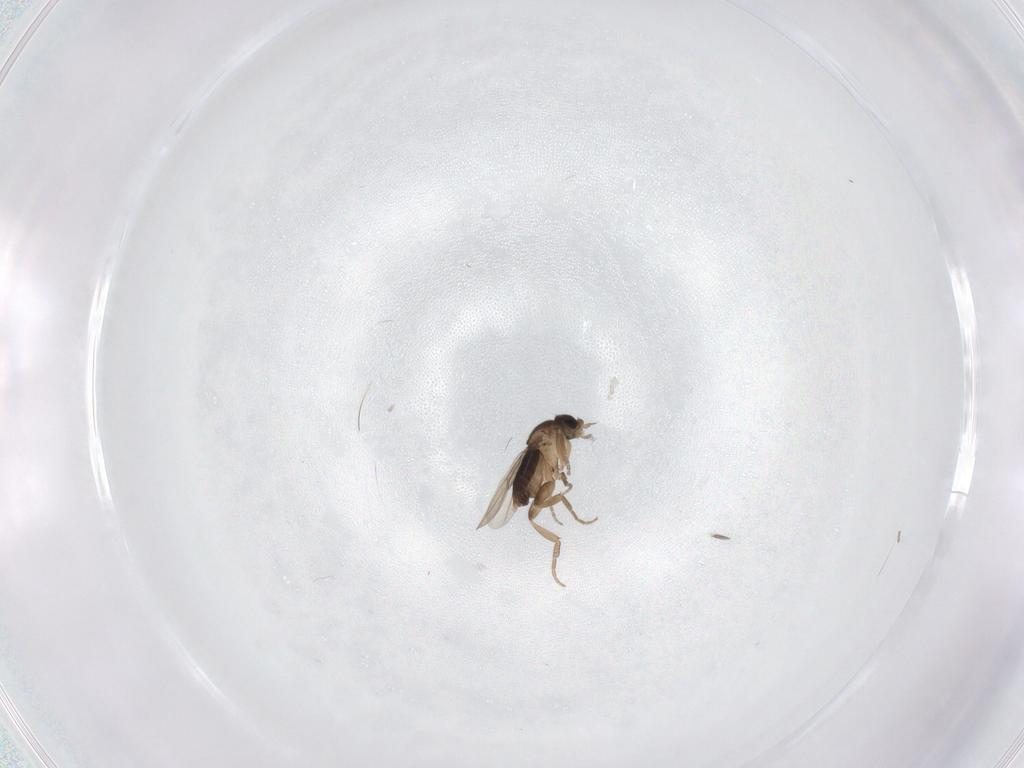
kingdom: Animalia
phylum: Arthropoda
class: Insecta
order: Diptera
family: Phoridae
